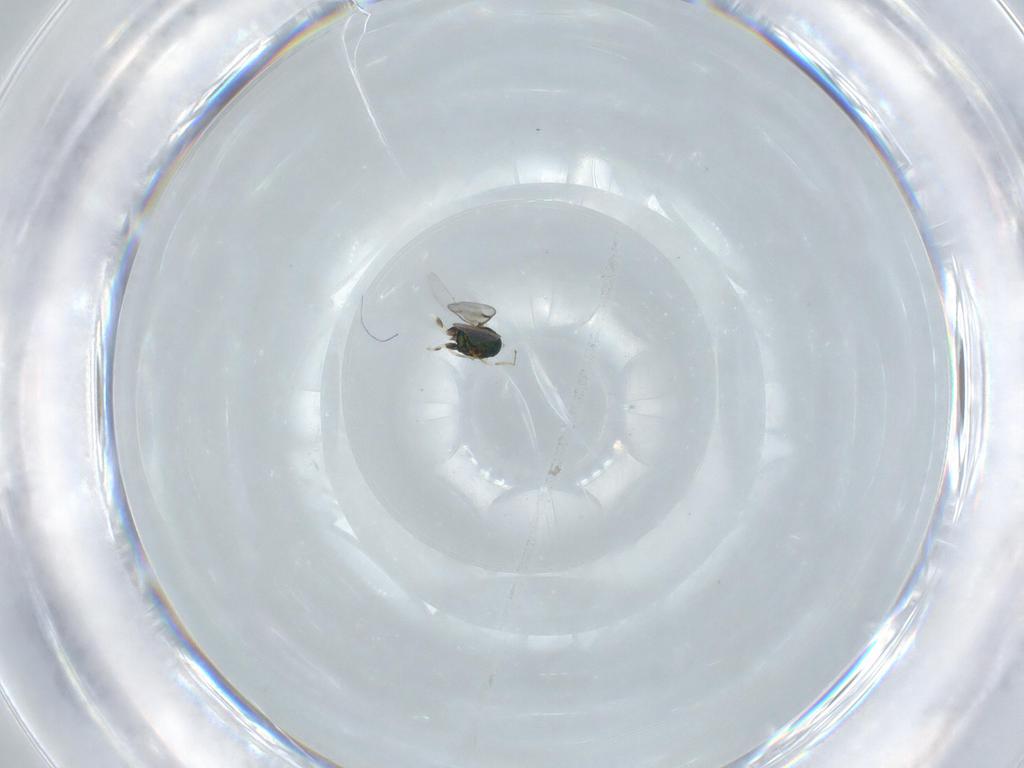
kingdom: Animalia
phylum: Arthropoda
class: Insecta
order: Hymenoptera
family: Eulophidae
